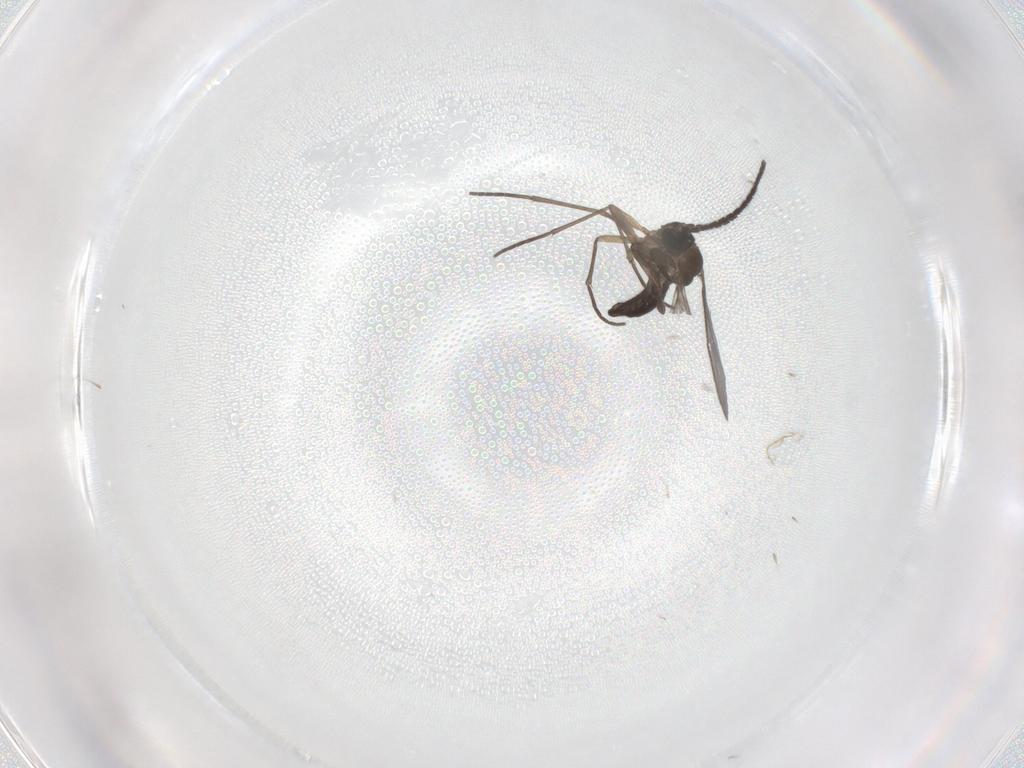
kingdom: Animalia
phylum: Arthropoda
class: Insecta
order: Diptera
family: Sciaridae
